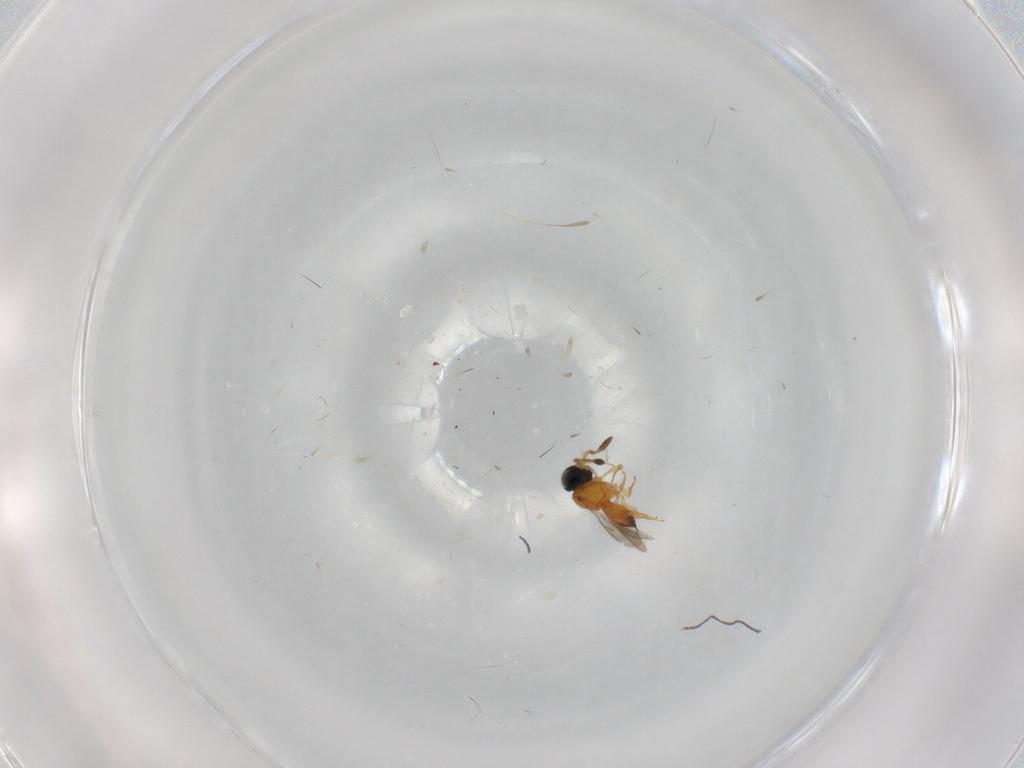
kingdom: Animalia
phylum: Arthropoda
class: Insecta
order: Hymenoptera
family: Scelionidae
